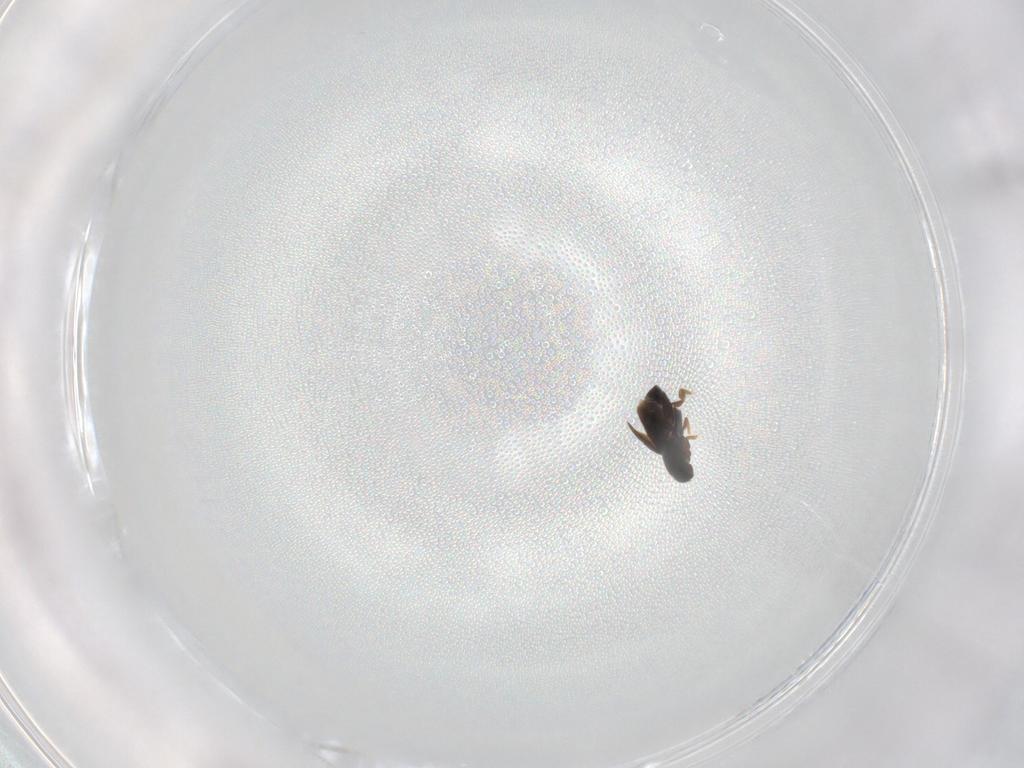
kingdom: Animalia
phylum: Arthropoda
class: Insecta
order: Coleoptera
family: Ptiliidae
